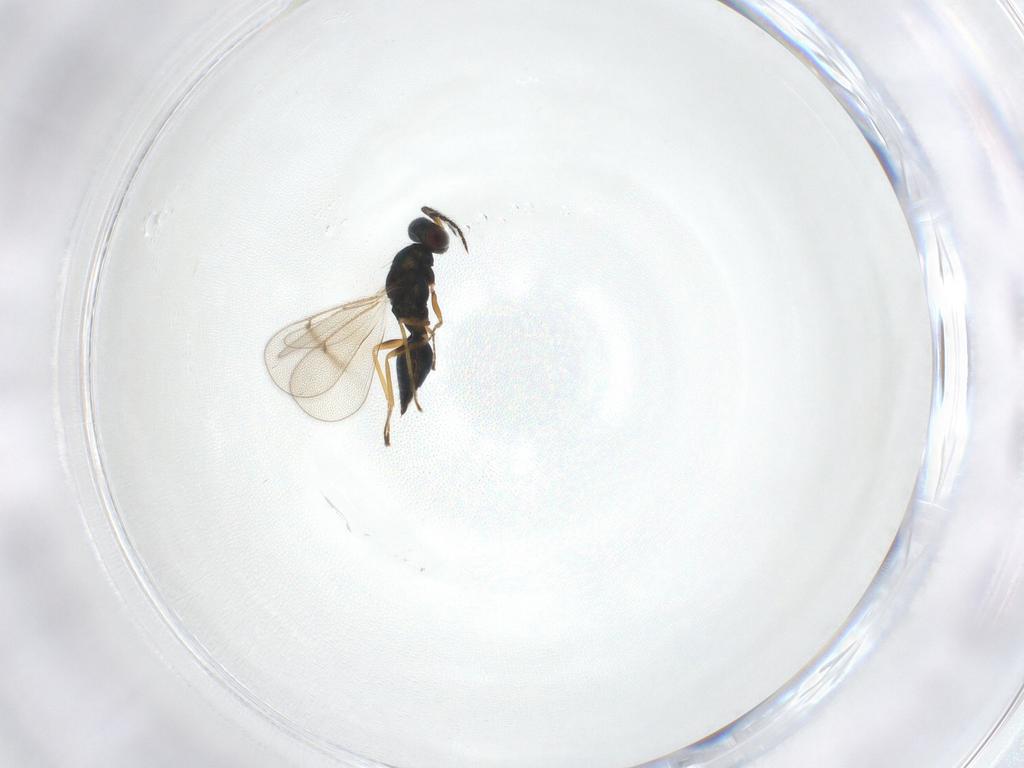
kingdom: Animalia
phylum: Arthropoda
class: Insecta
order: Hymenoptera
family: Eulophidae
